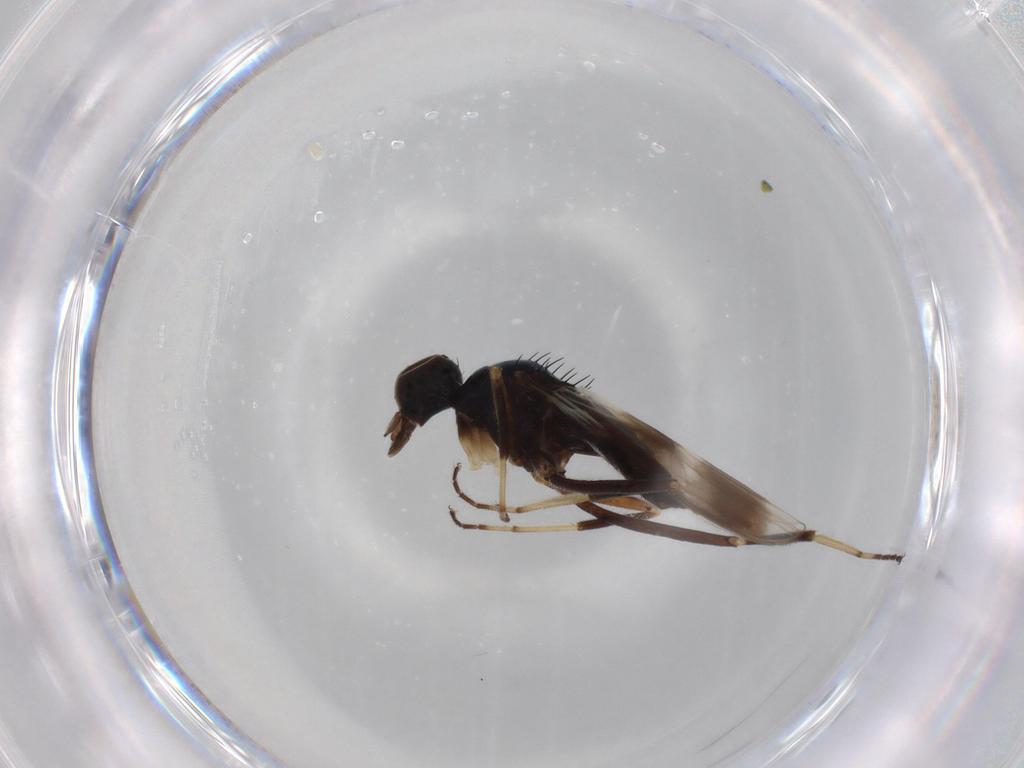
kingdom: Animalia
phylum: Arthropoda
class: Insecta
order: Diptera
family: Hybotidae
